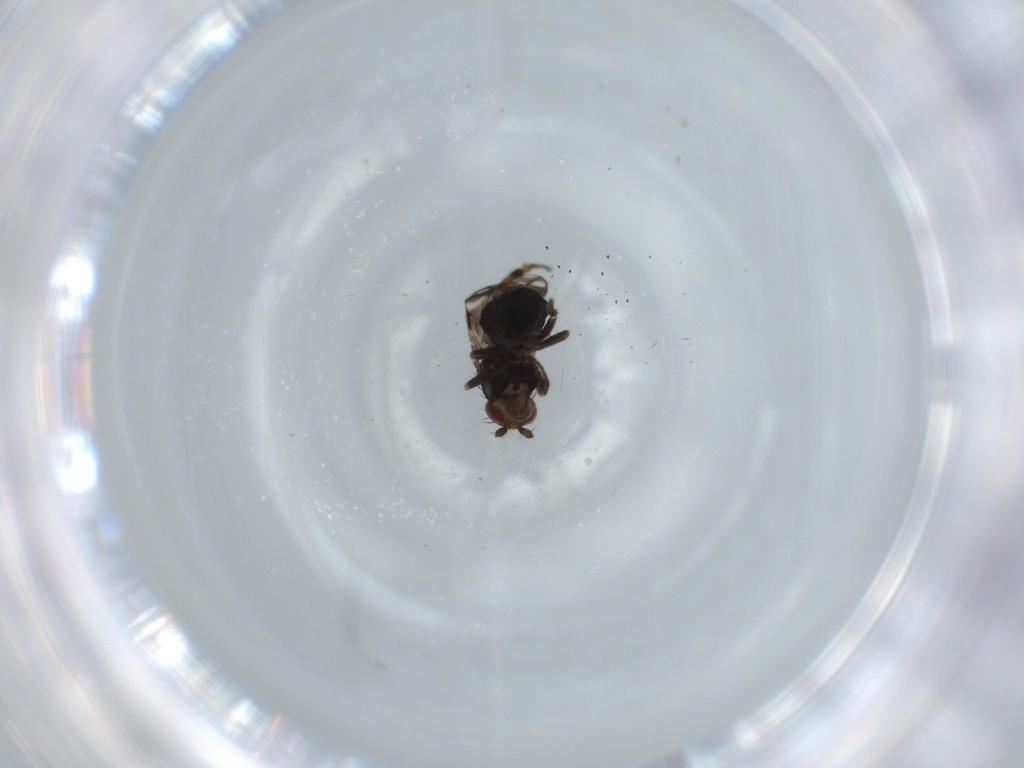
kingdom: Animalia
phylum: Arthropoda
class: Insecta
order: Diptera
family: Sphaeroceridae
